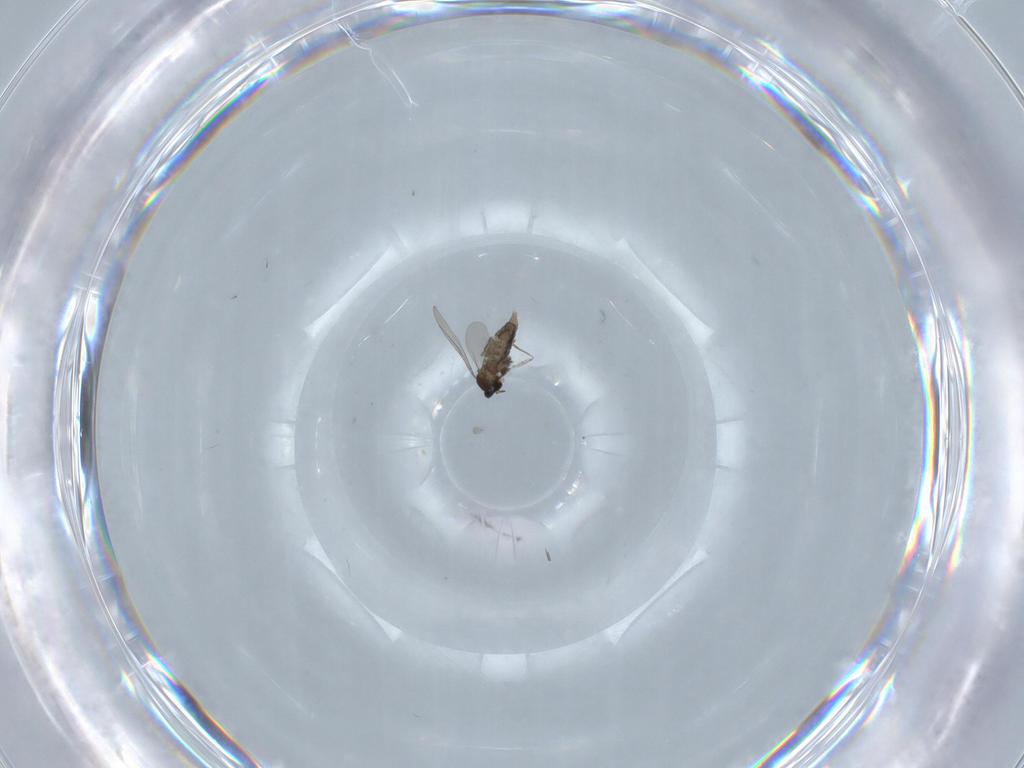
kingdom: Animalia
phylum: Arthropoda
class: Insecta
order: Diptera
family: Cecidomyiidae
